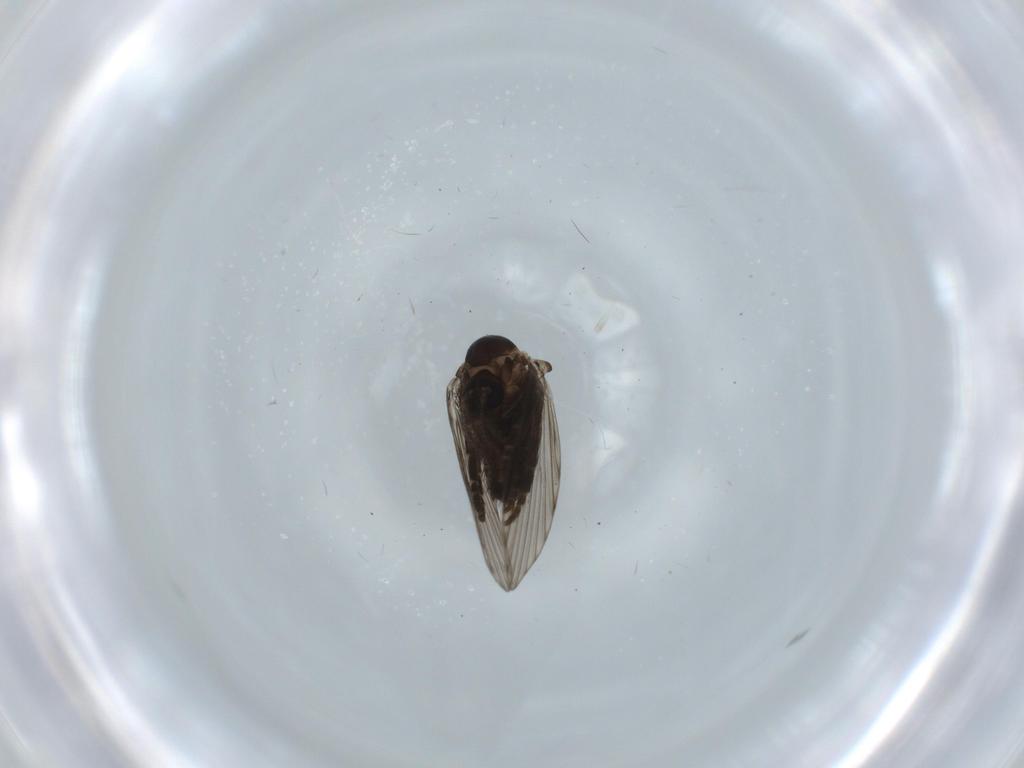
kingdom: Animalia
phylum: Arthropoda
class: Insecta
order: Diptera
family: Psychodidae
